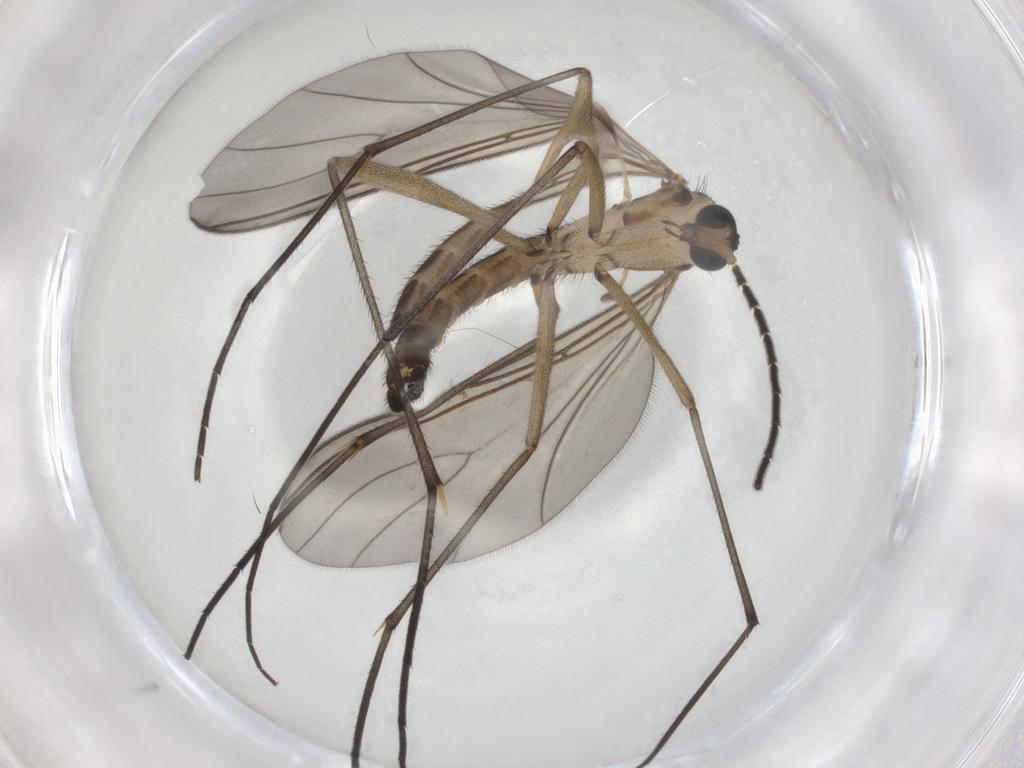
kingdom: Animalia
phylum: Arthropoda
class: Insecta
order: Diptera
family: Sciaridae
